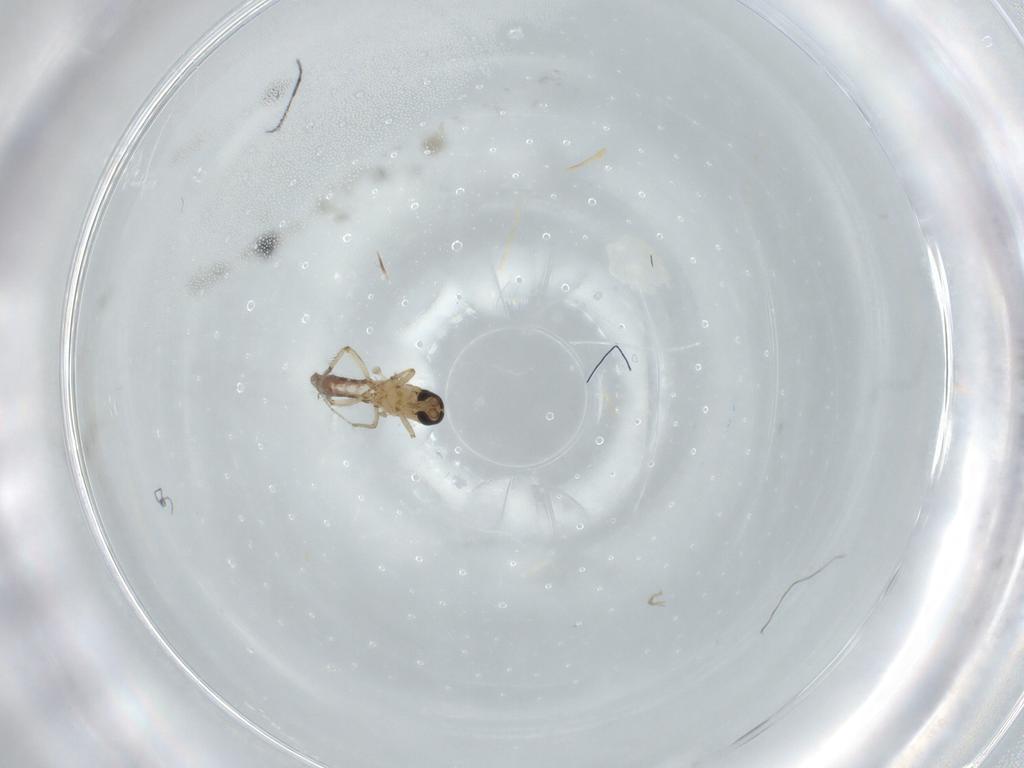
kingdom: Animalia
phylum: Arthropoda
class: Insecta
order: Diptera
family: Ceratopogonidae
